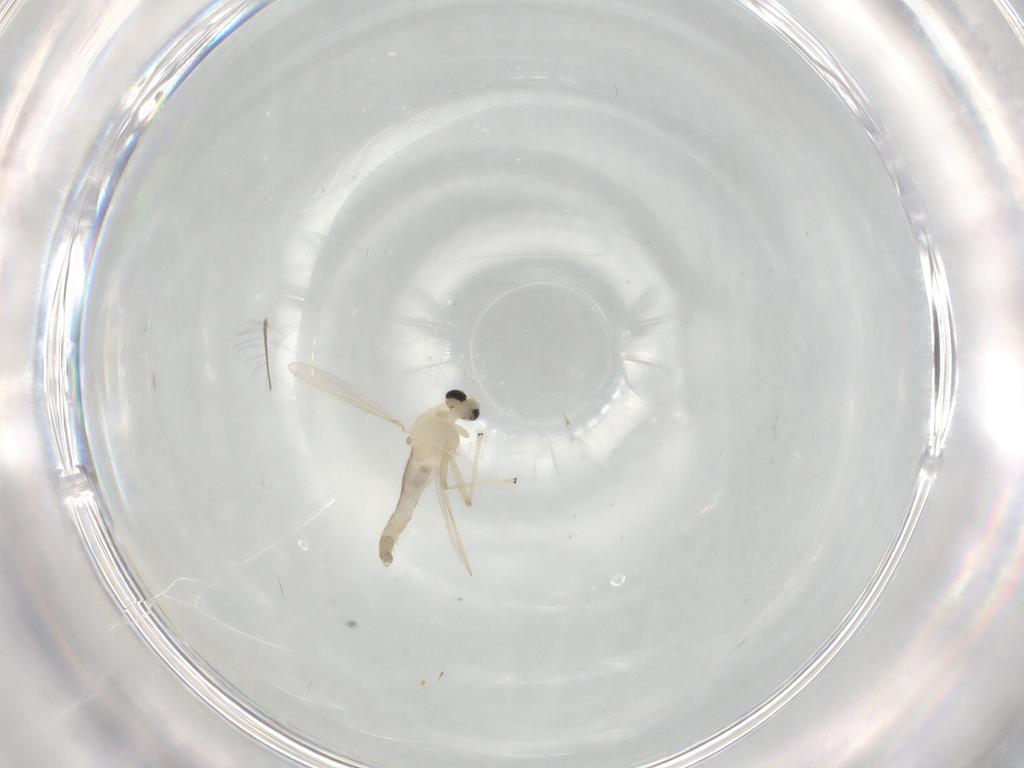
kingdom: Animalia
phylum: Arthropoda
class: Insecta
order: Diptera
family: Chironomidae
